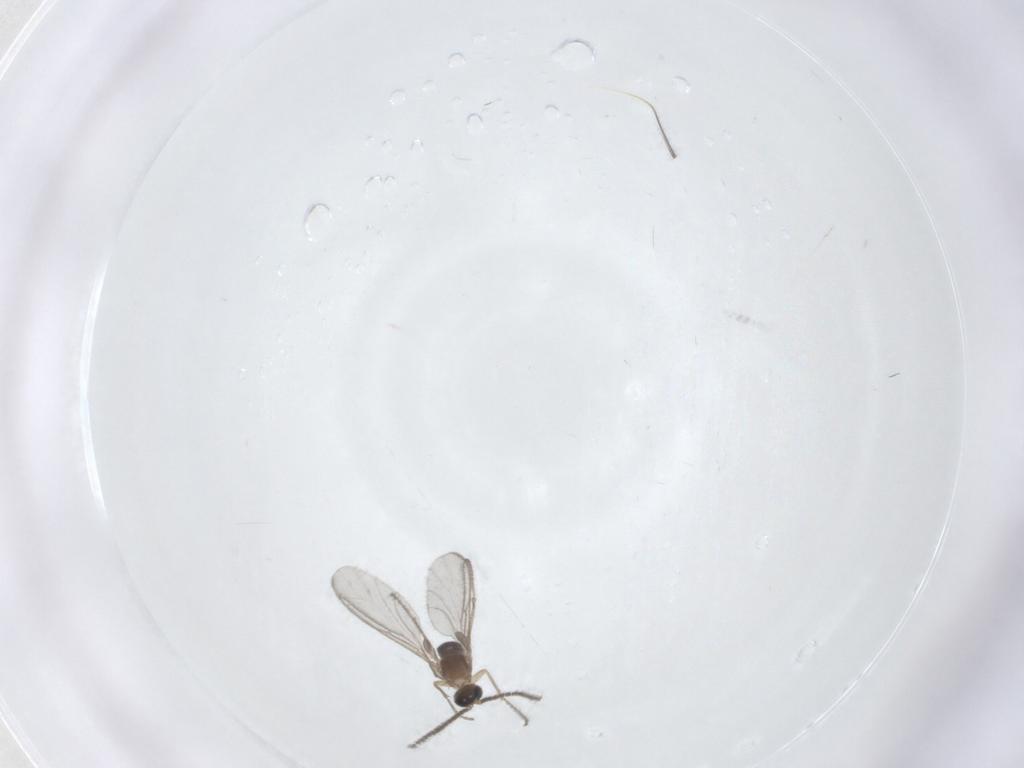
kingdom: Animalia
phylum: Arthropoda
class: Insecta
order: Diptera
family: Sciaridae
